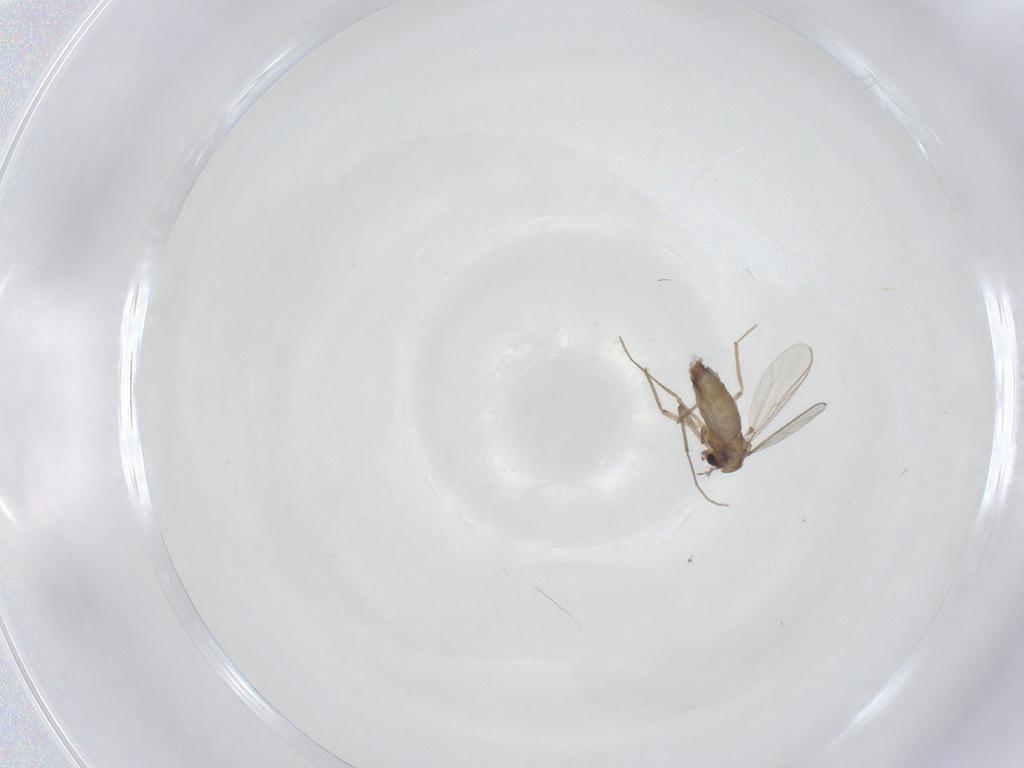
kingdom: Animalia
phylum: Arthropoda
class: Insecta
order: Diptera
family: Chironomidae
